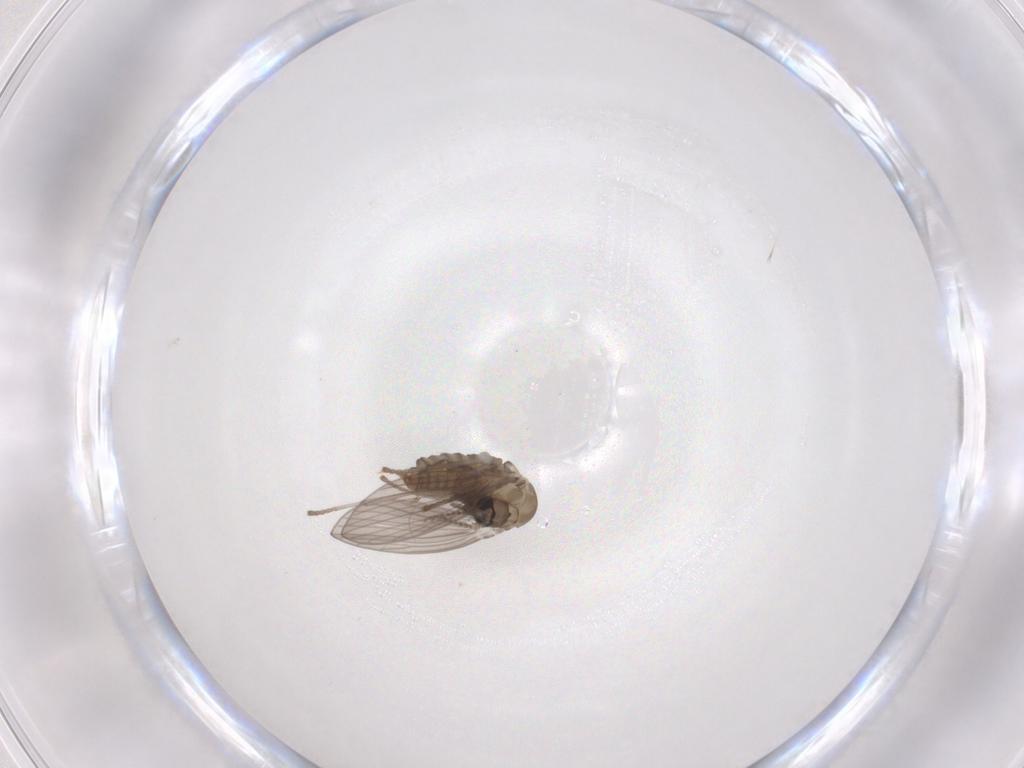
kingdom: Animalia
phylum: Arthropoda
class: Insecta
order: Diptera
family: Psychodidae
